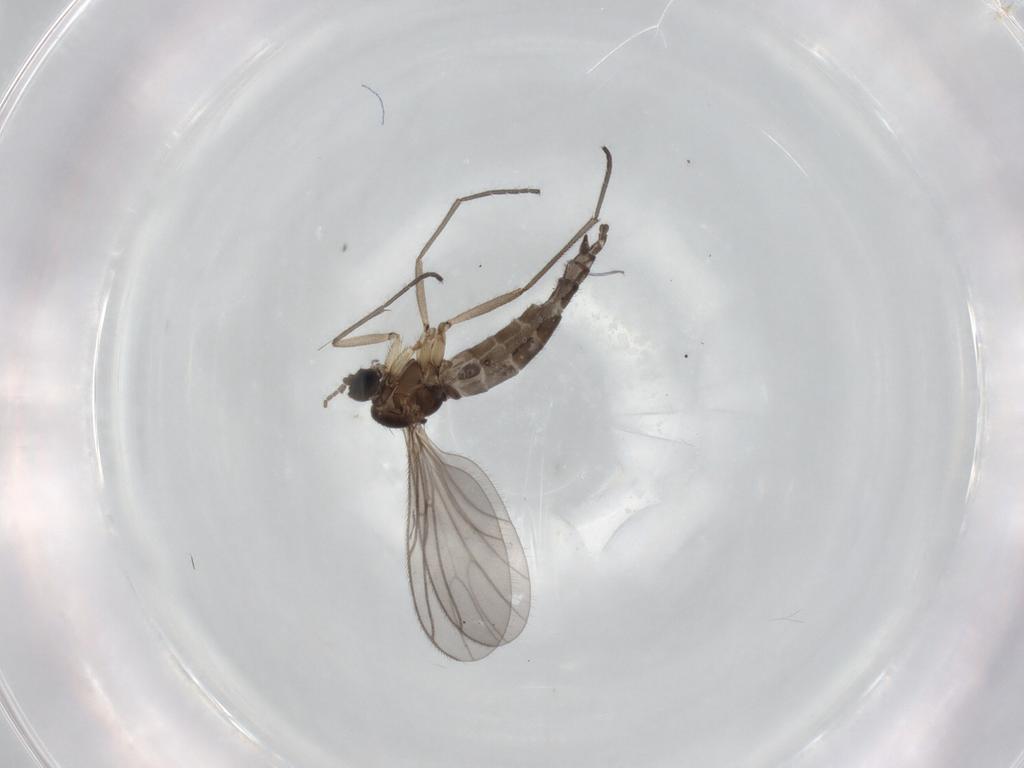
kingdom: Animalia
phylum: Arthropoda
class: Insecta
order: Diptera
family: Sciaridae
